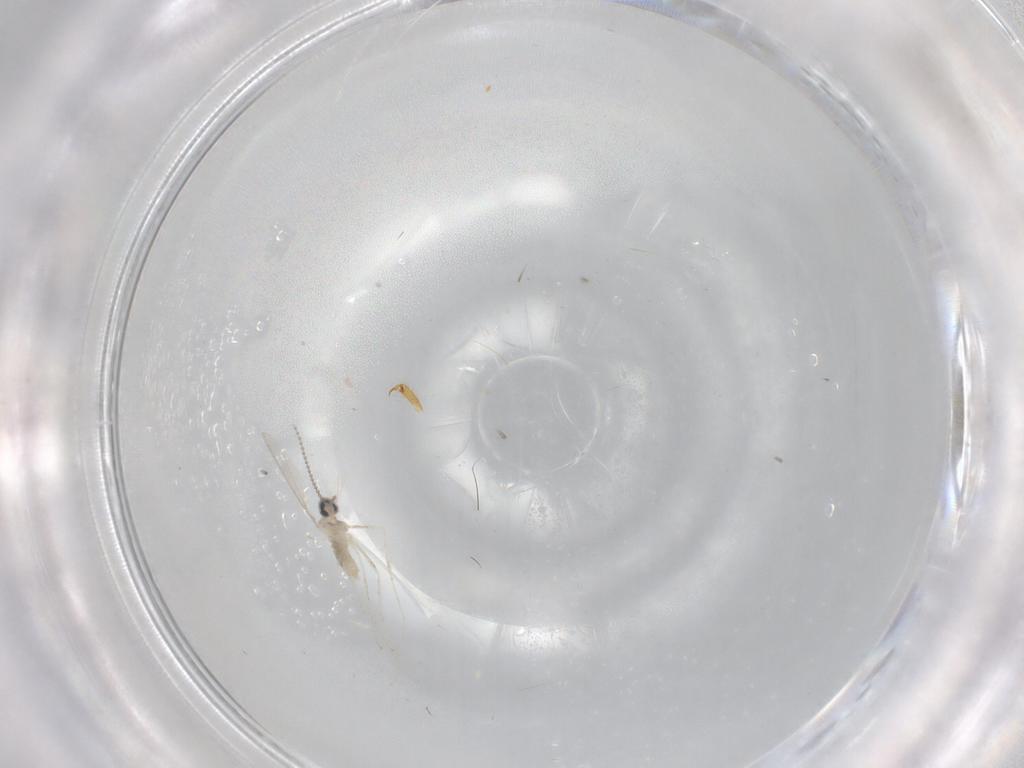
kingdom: Animalia
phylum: Arthropoda
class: Insecta
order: Diptera
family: Cecidomyiidae
